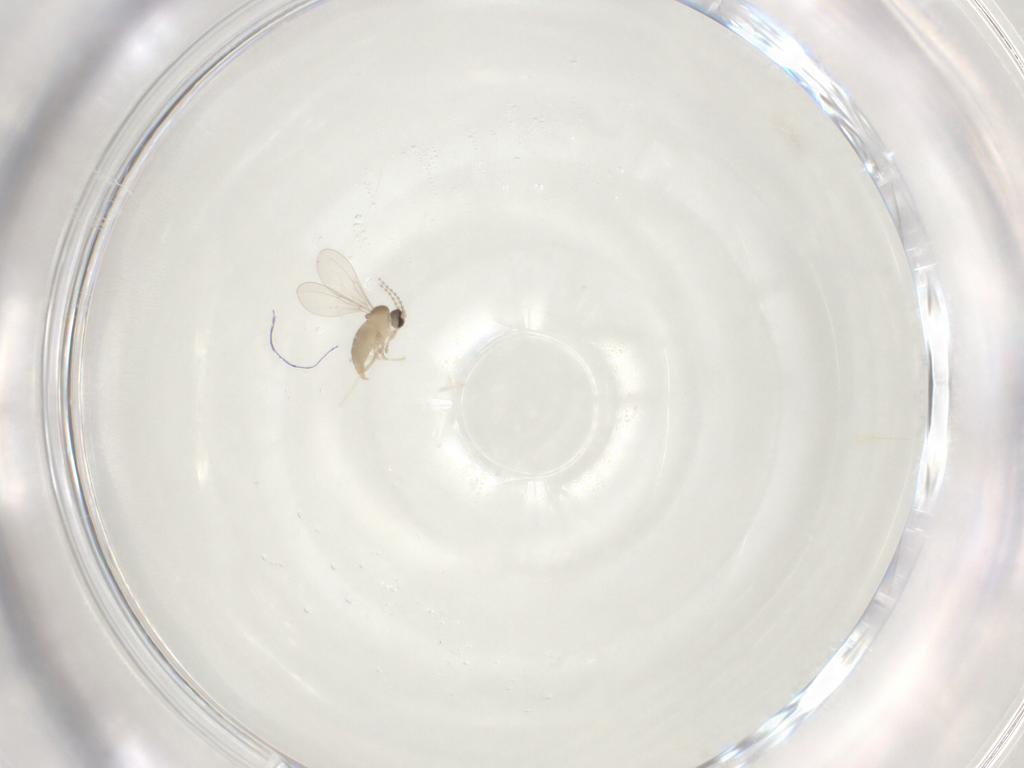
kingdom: Animalia
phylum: Arthropoda
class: Insecta
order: Diptera
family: Cecidomyiidae
